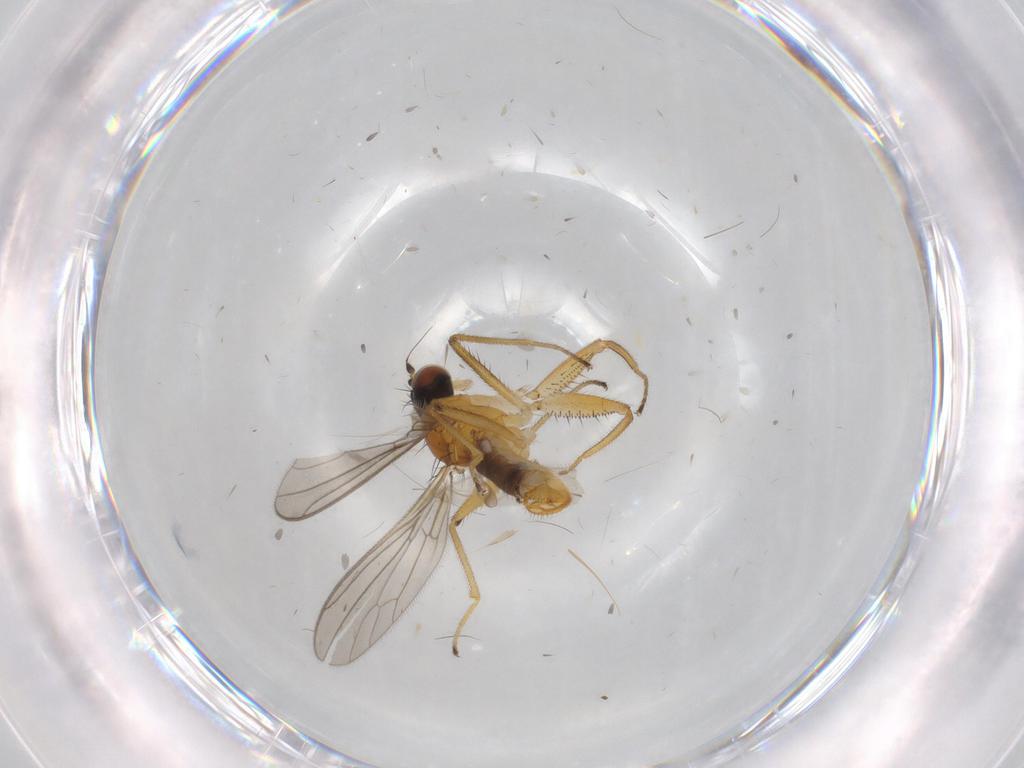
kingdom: Animalia
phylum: Arthropoda
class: Insecta
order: Diptera
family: Empididae
